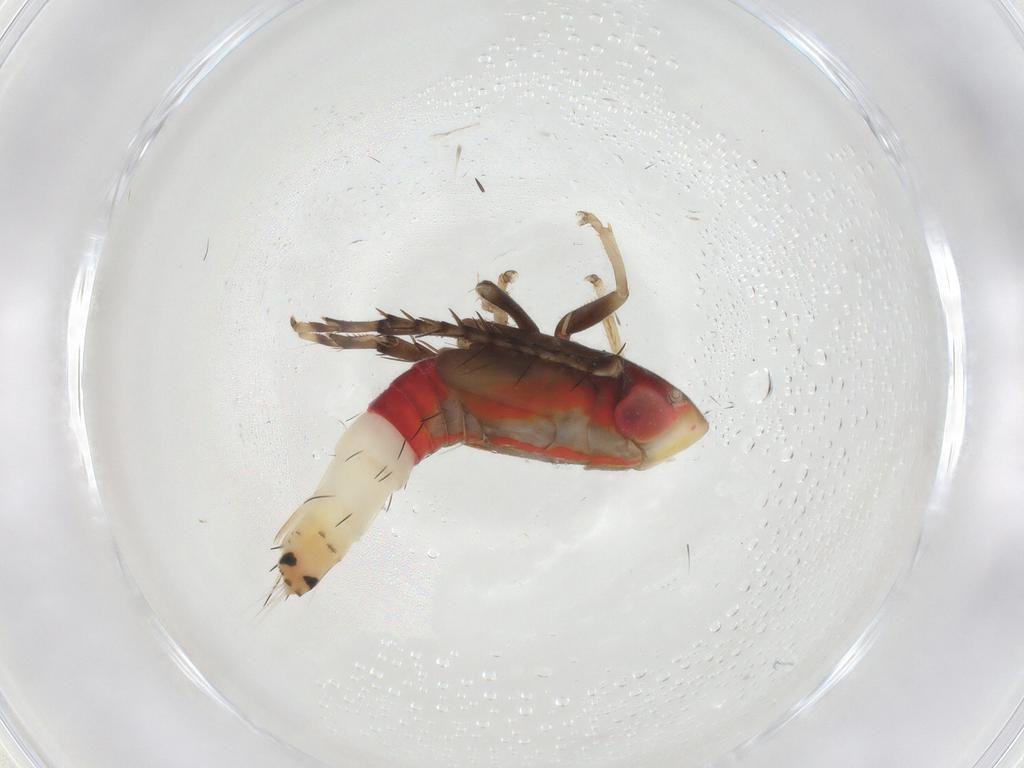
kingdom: Animalia
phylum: Arthropoda
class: Insecta
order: Hemiptera
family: Cicadellidae
